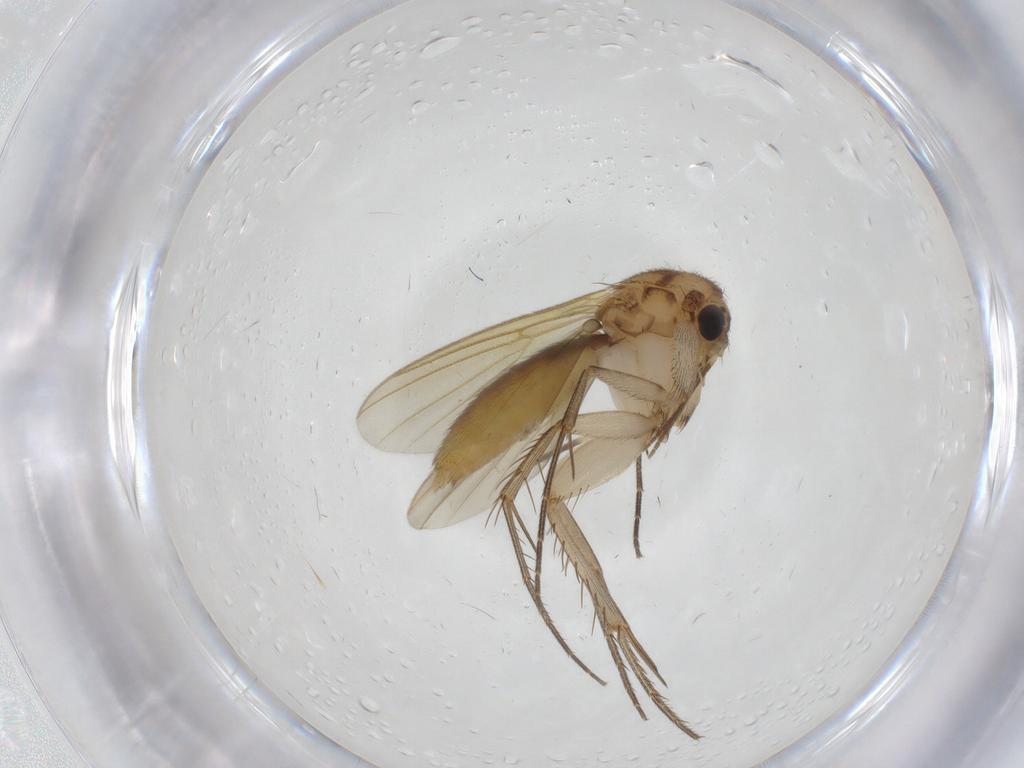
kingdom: Animalia
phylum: Arthropoda
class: Insecta
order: Diptera
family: Mycetophilidae
